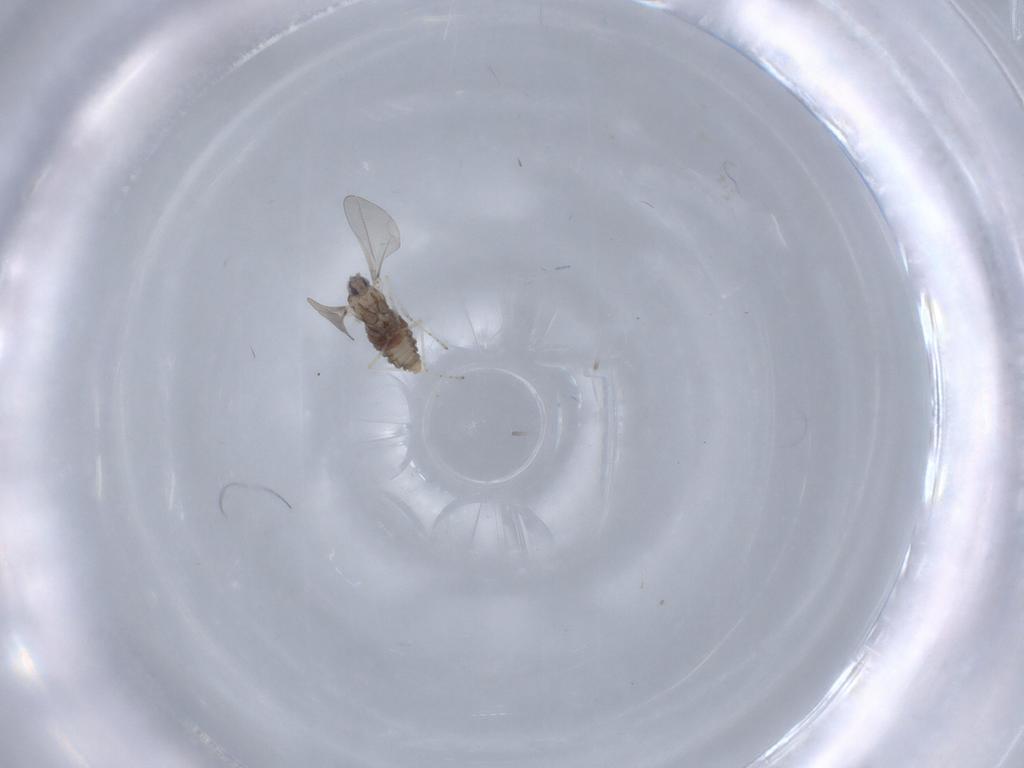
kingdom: Animalia
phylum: Arthropoda
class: Insecta
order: Diptera
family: Cecidomyiidae
